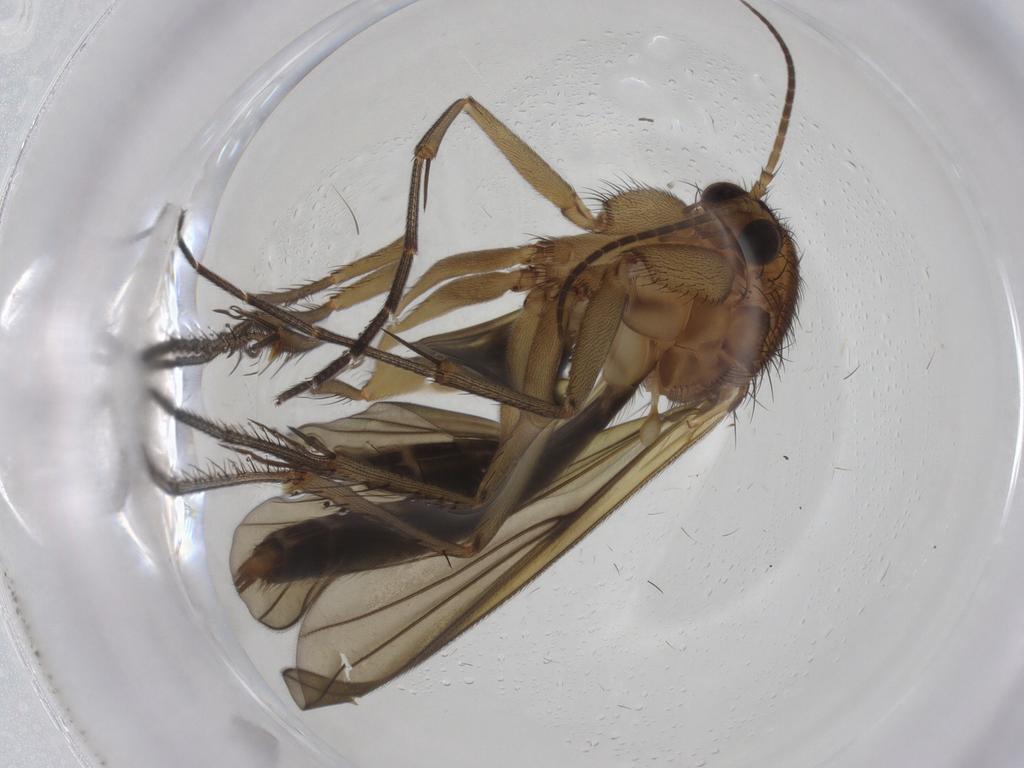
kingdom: Animalia
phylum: Arthropoda
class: Insecta
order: Diptera
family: Mycetophilidae
